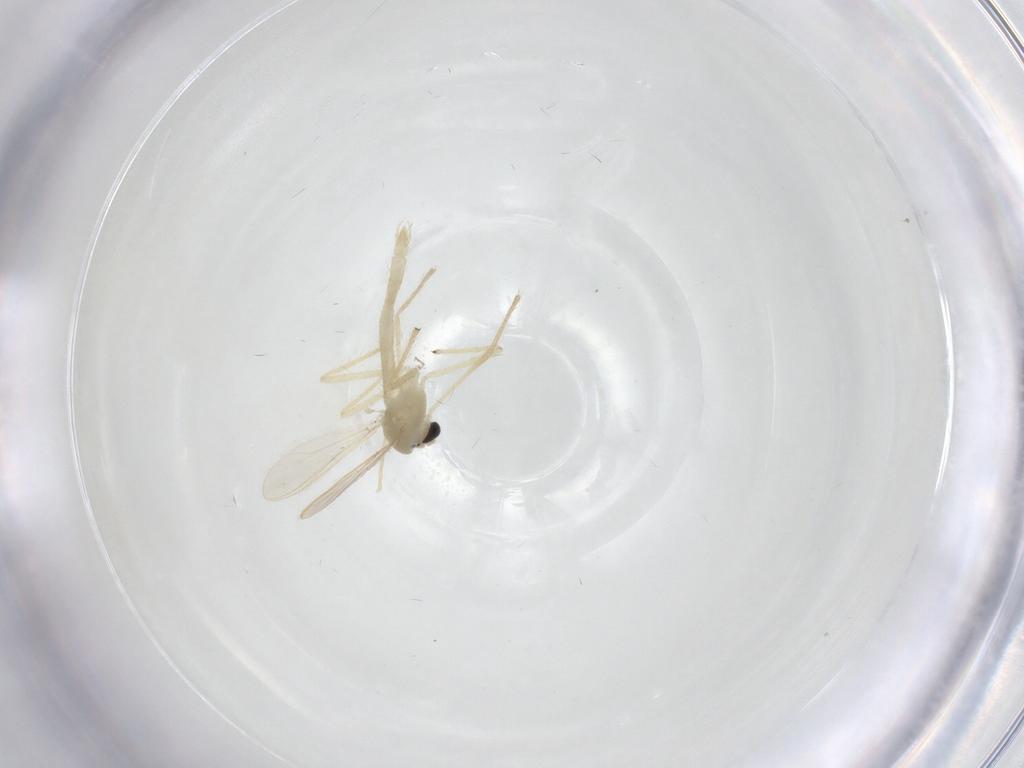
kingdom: Animalia
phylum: Arthropoda
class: Insecta
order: Diptera
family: Chironomidae
